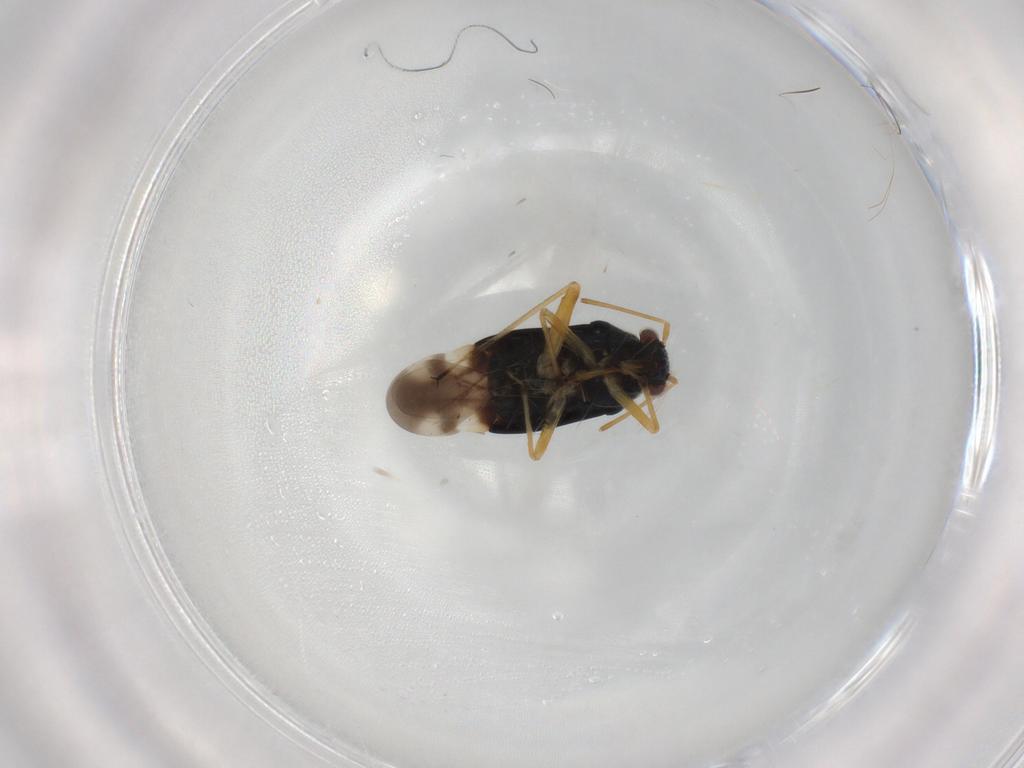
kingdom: Animalia
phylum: Arthropoda
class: Insecta
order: Hemiptera
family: Miridae
